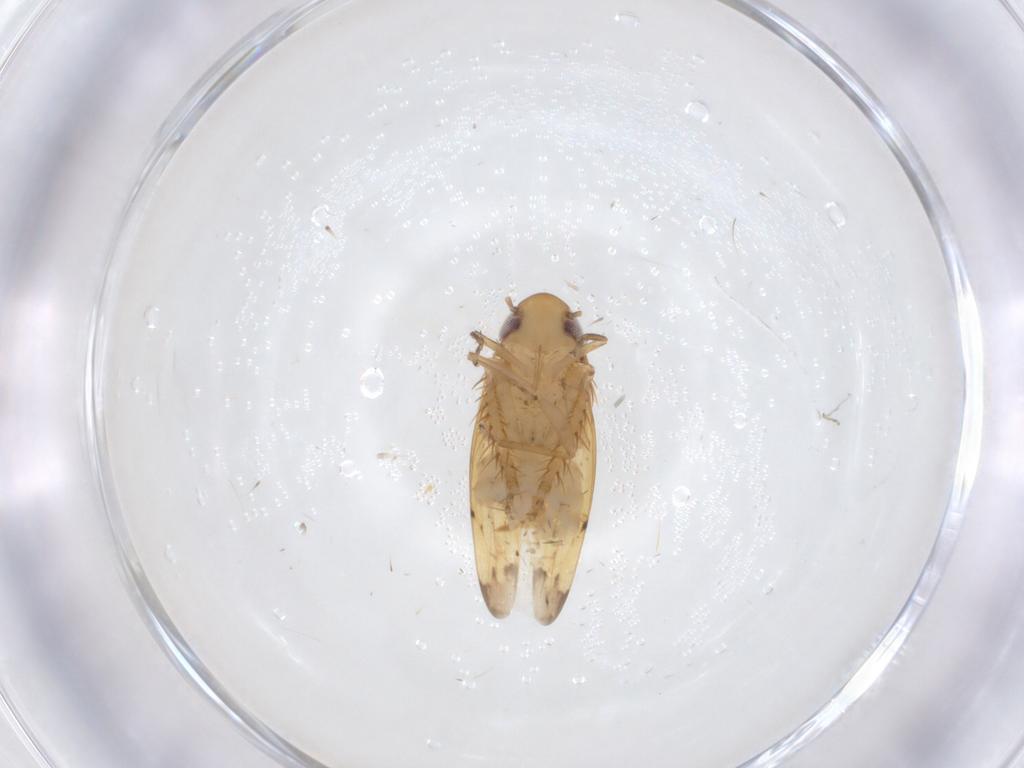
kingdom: Animalia
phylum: Arthropoda
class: Insecta
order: Hemiptera
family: Cicadellidae
